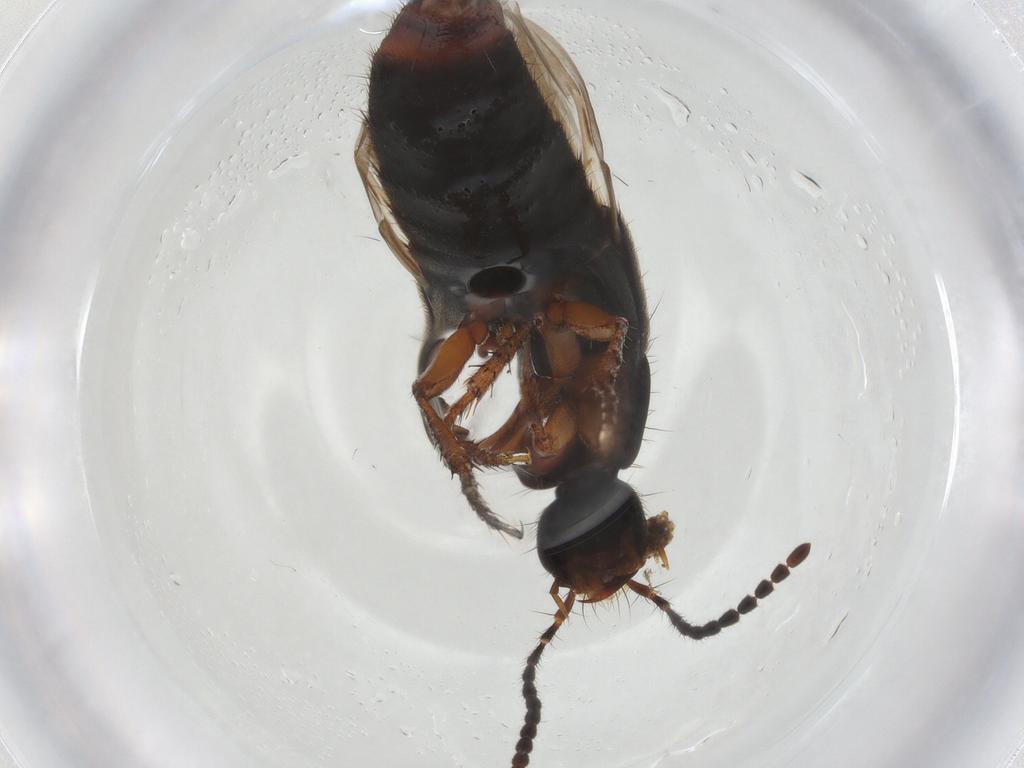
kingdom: Animalia
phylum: Arthropoda
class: Insecta
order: Coleoptera
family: Staphylinidae
